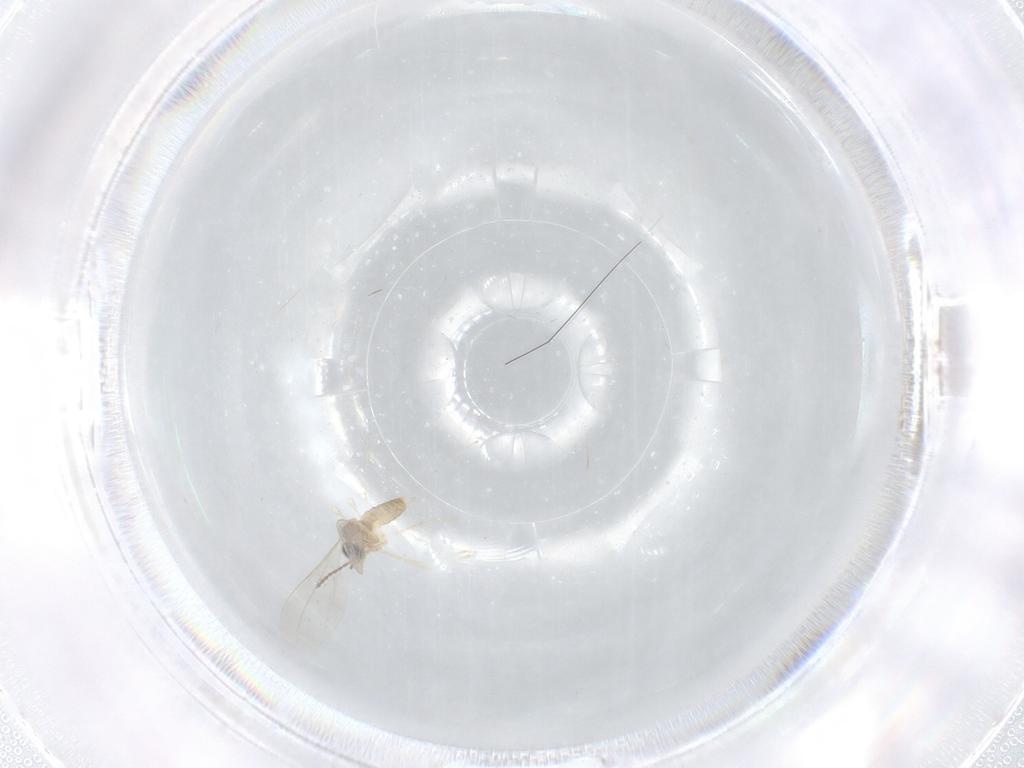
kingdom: Animalia
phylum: Arthropoda
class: Insecta
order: Diptera
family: Cecidomyiidae
